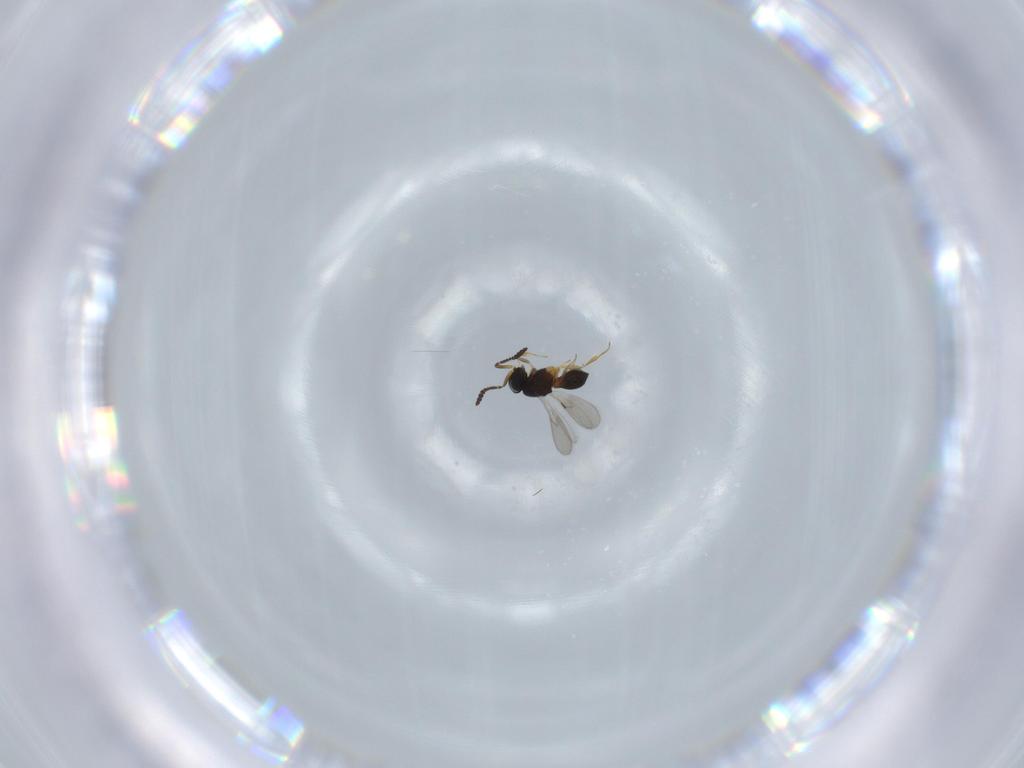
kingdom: Animalia
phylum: Arthropoda
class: Insecta
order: Hymenoptera
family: Scelionidae
